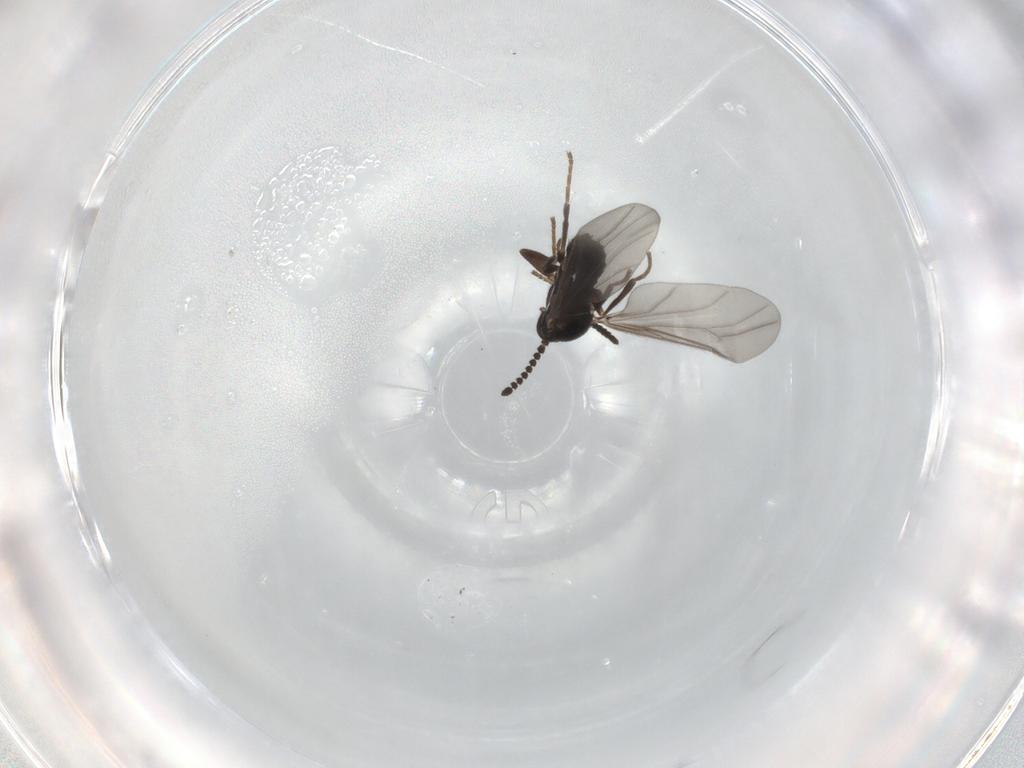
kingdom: Animalia
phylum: Arthropoda
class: Insecta
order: Diptera
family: Scatopsidae
